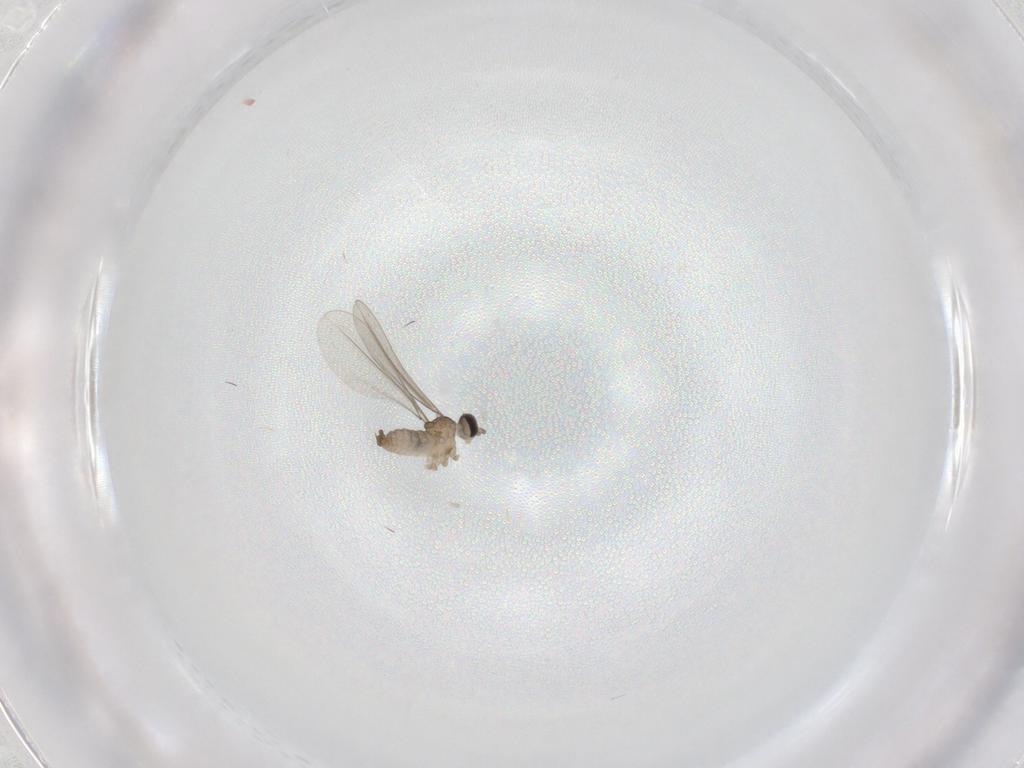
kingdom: Animalia
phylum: Arthropoda
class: Insecta
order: Diptera
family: Cecidomyiidae
